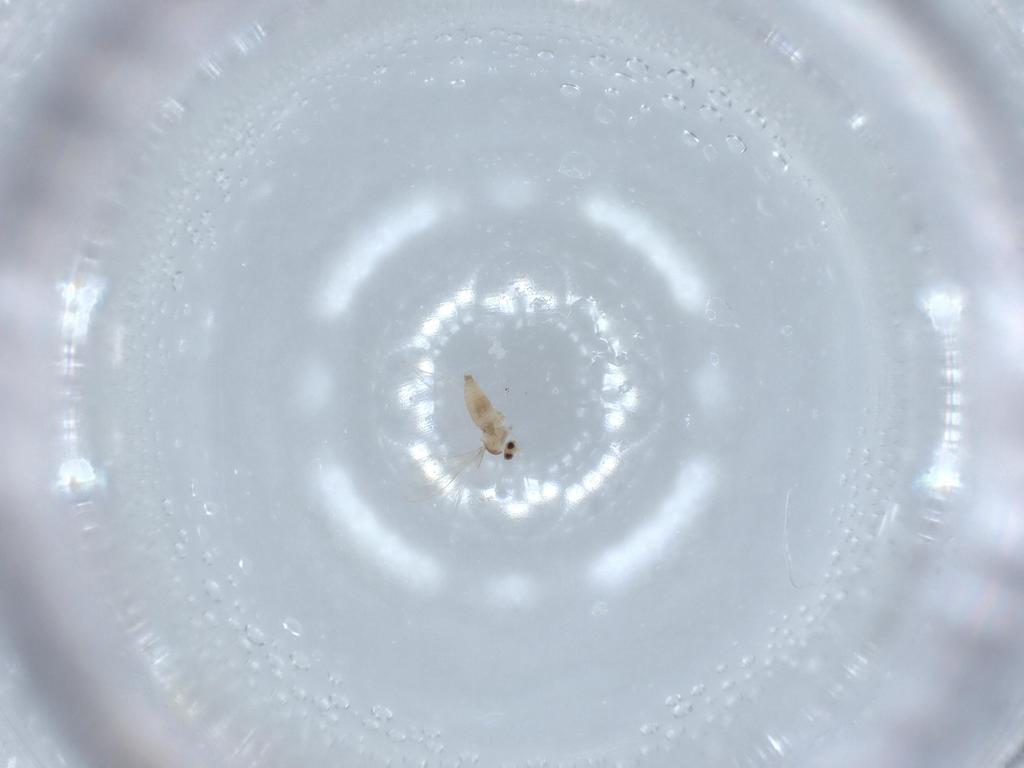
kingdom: Animalia
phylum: Arthropoda
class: Insecta
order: Diptera
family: Cecidomyiidae
